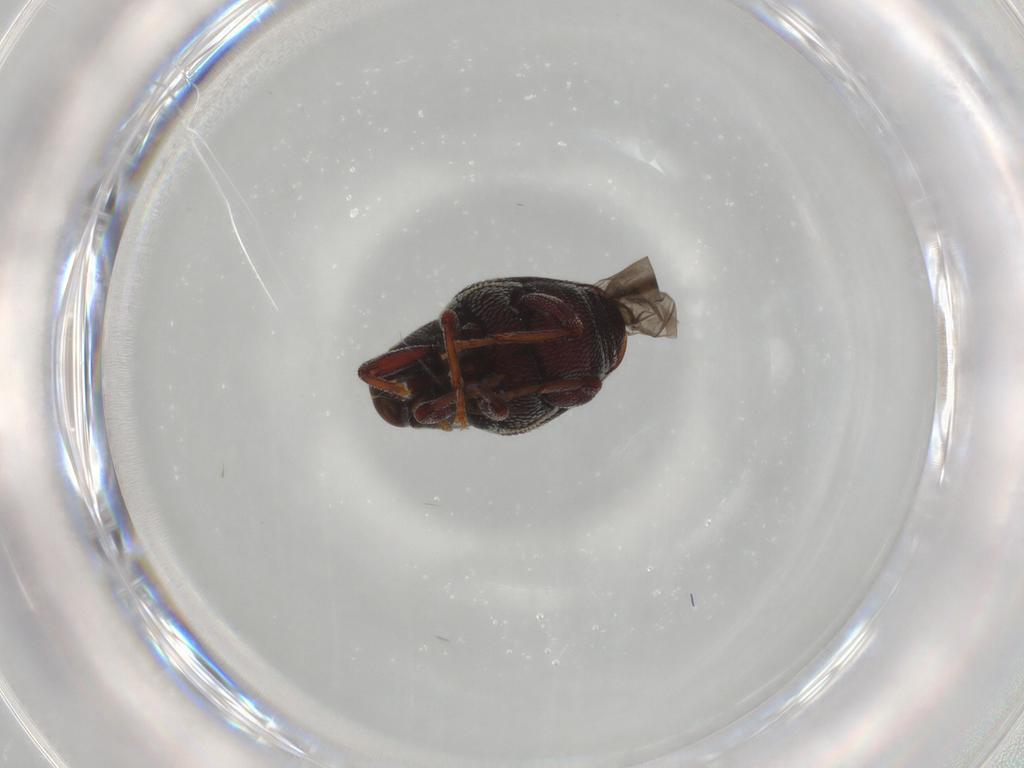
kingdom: Animalia
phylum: Arthropoda
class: Insecta
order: Coleoptera
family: Curculionidae
